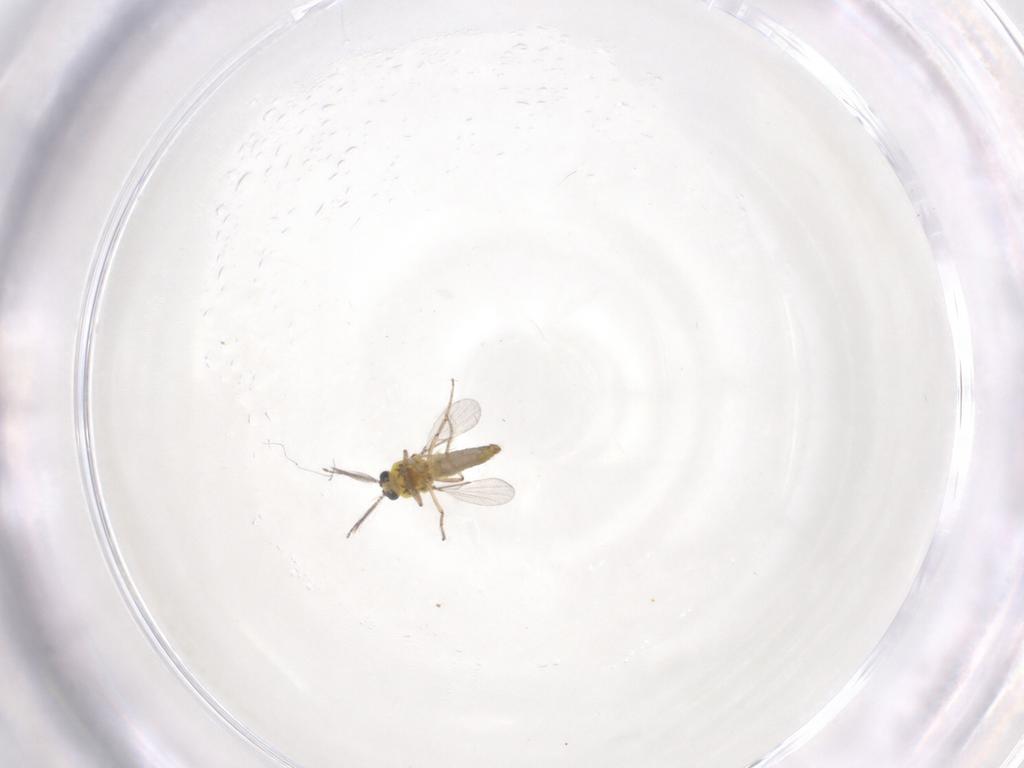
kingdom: Animalia
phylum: Arthropoda
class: Insecta
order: Diptera
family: Ceratopogonidae
